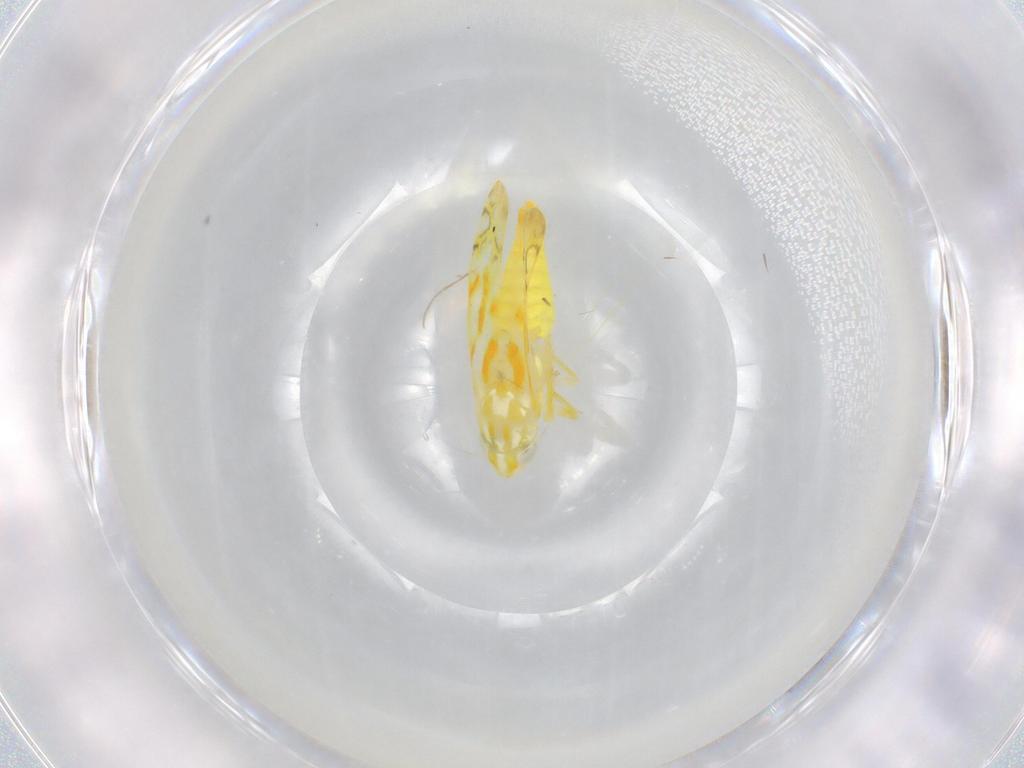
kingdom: Animalia
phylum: Arthropoda
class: Insecta
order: Hemiptera
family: Cicadellidae
